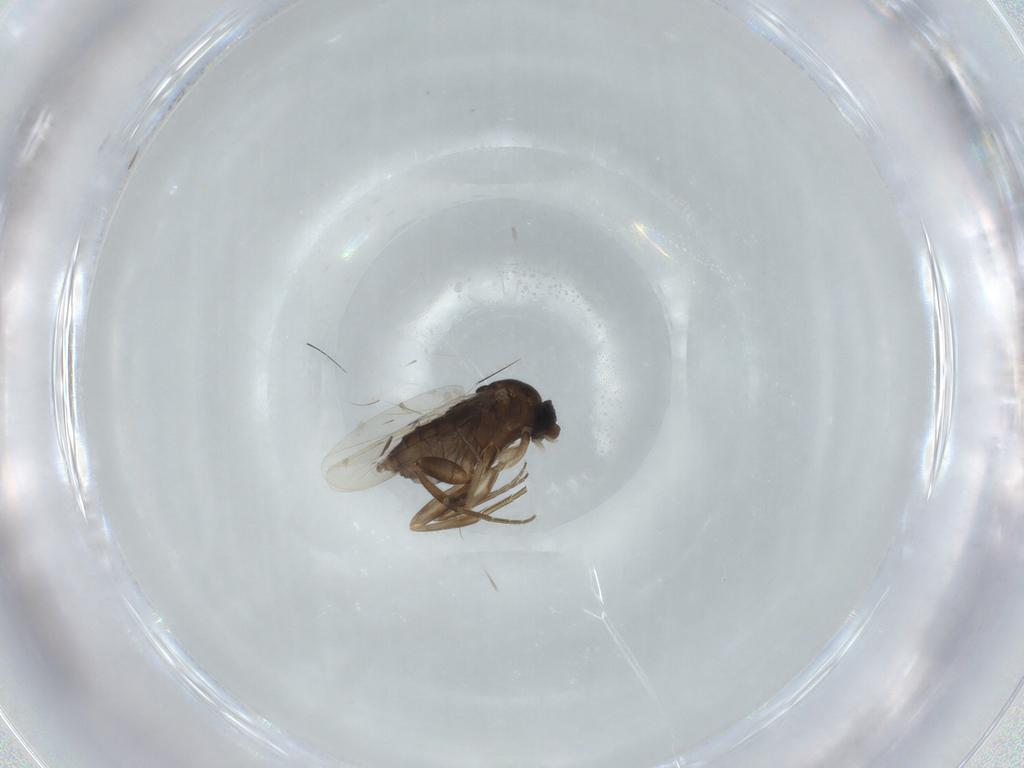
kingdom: Animalia
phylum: Arthropoda
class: Insecta
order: Diptera
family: Phoridae
